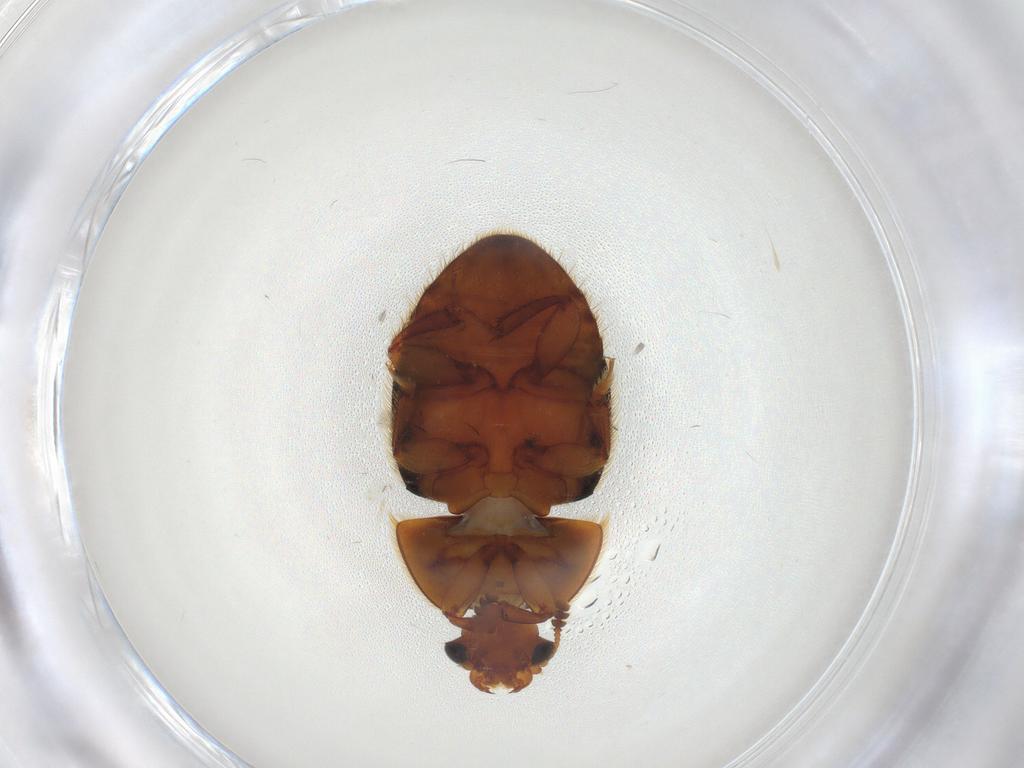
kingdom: Animalia
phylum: Arthropoda
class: Insecta
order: Coleoptera
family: Nitidulidae
